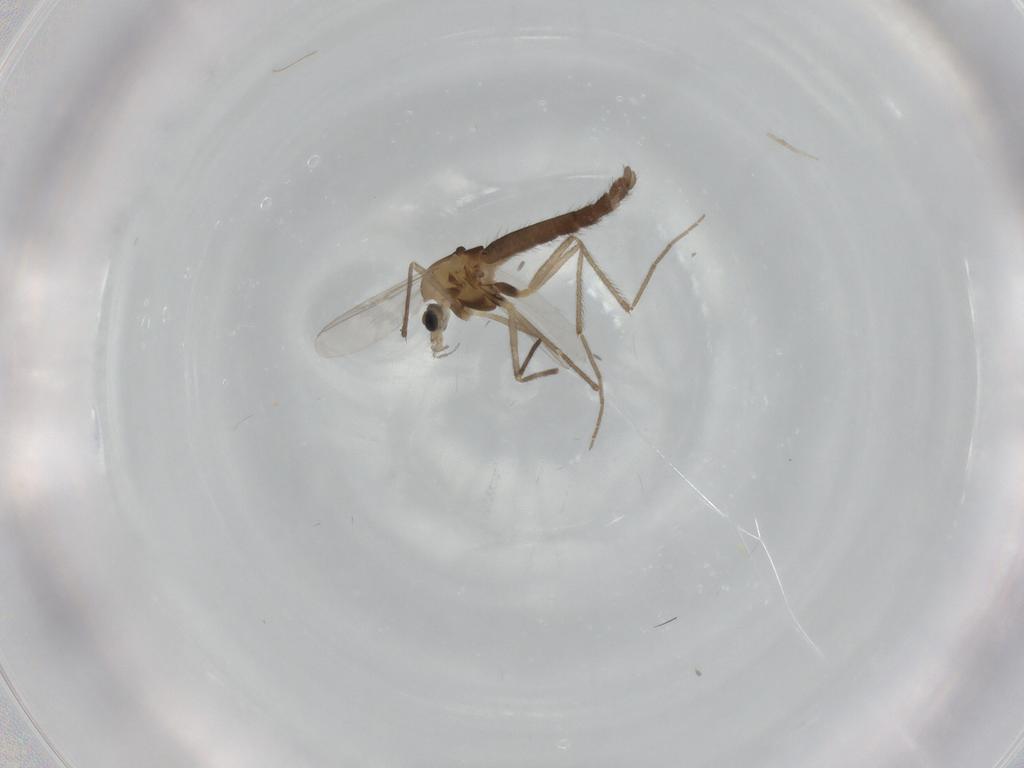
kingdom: Animalia
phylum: Arthropoda
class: Insecta
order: Diptera
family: Chironomidae
